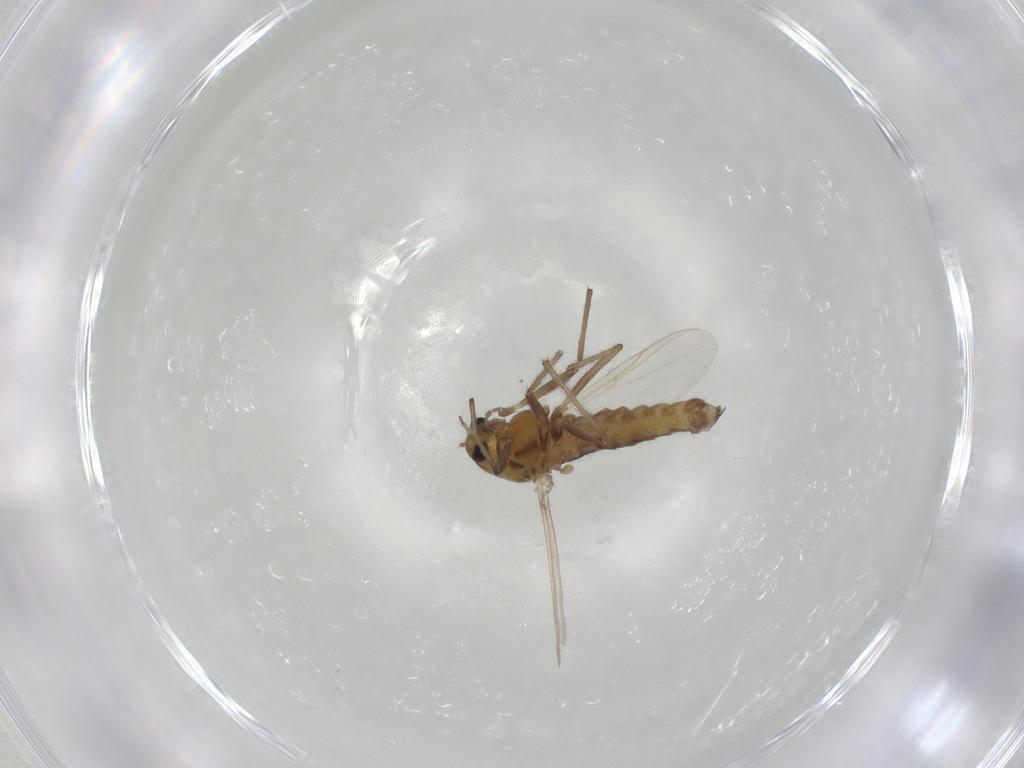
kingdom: Animalia
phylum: Arthropoda
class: Insecta
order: Diptera
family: Chironomidae
